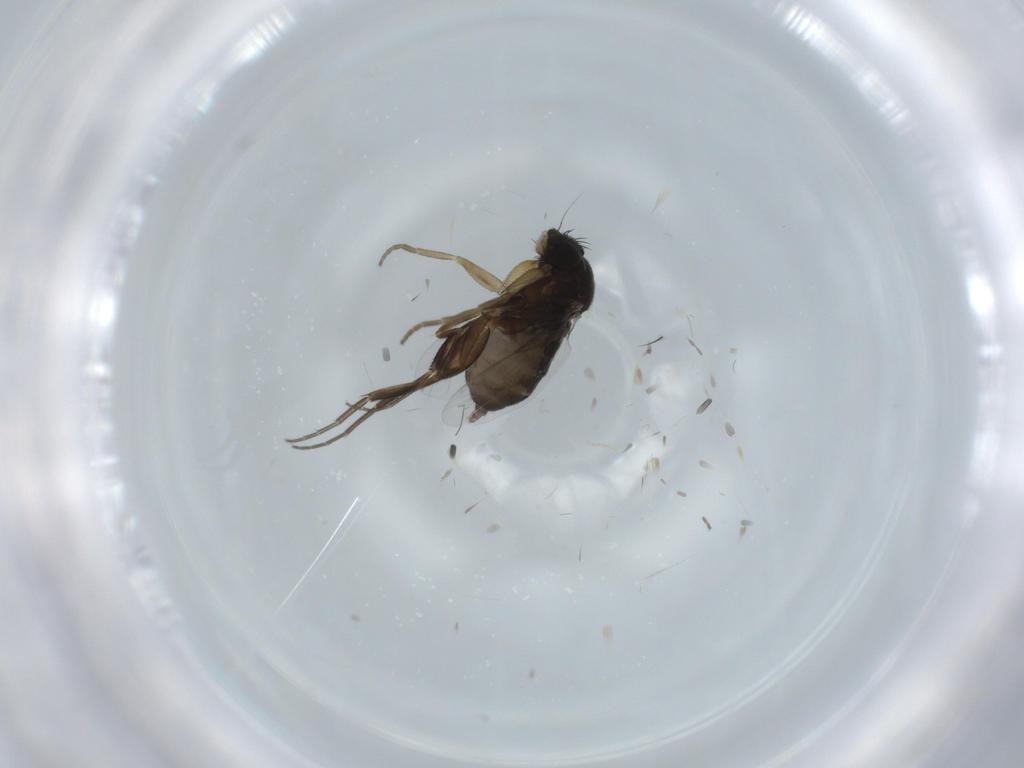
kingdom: Animalia
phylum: Arthropoda
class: Insecta
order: Diptera
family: Phoridae
